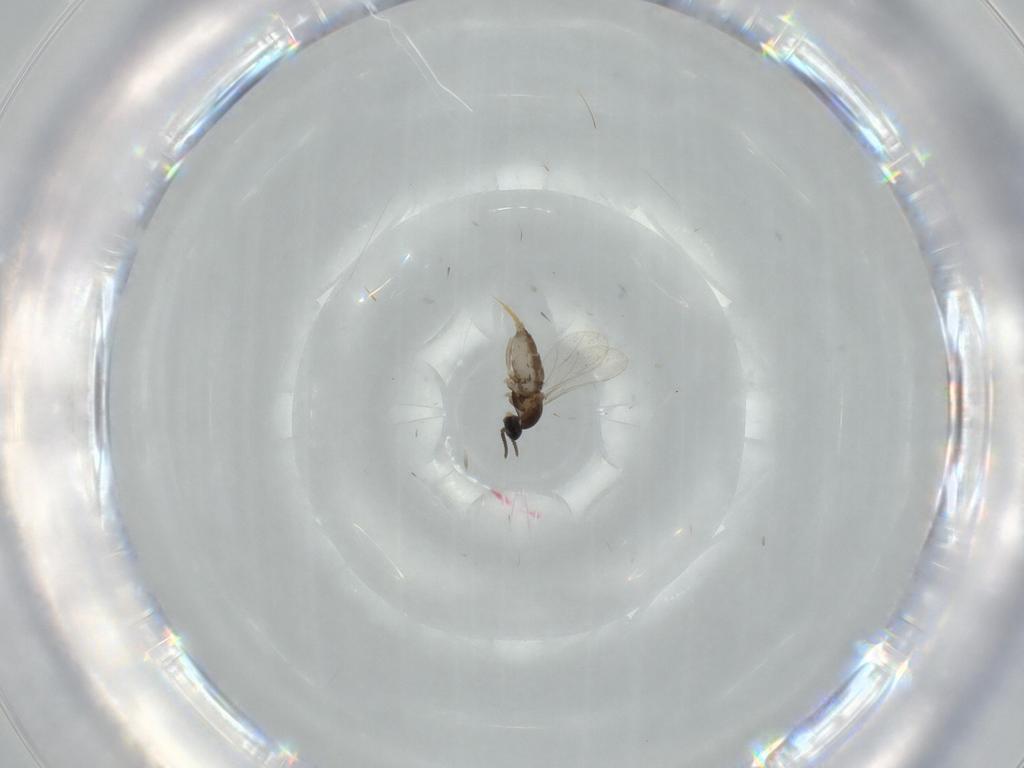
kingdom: Animalia
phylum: Arthropoda
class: Insecta
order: Diptera
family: Cecidomyiidae
